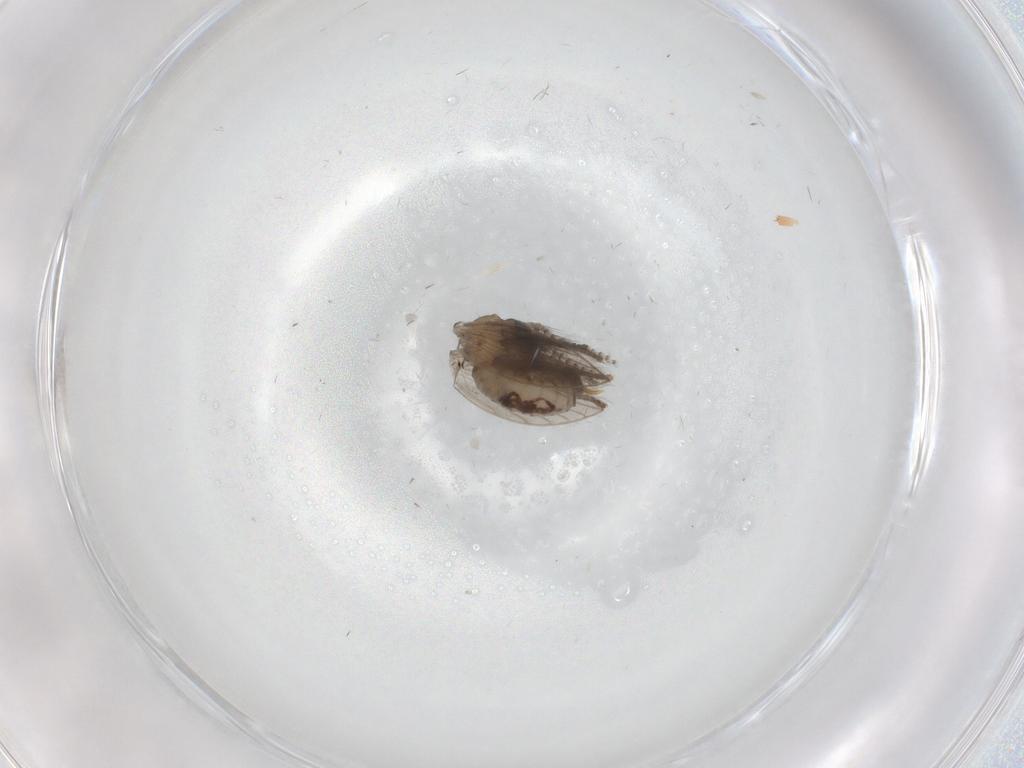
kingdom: Animalia
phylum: Arthropoda
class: Insecta
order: Diptera
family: Psychodidae
